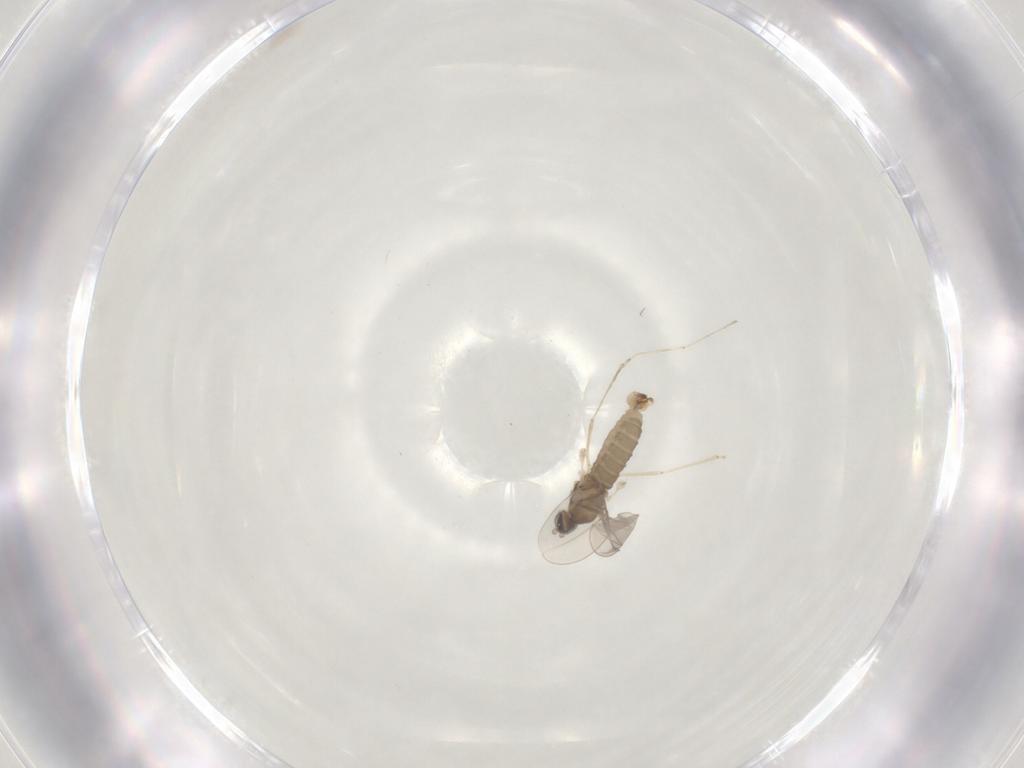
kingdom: Animalia
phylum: Arthropoda
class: Insecta
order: Diptera
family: Cecidomyiidae
